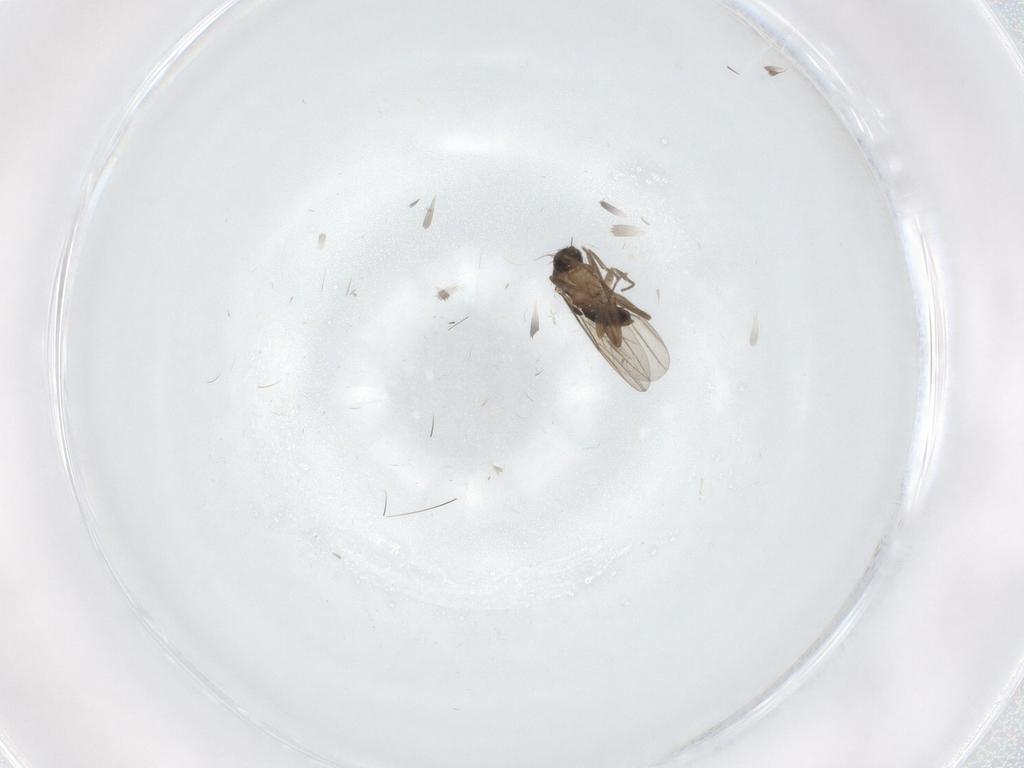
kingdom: Animalia
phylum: Arthropoda
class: Insecta
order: Diptera
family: Phoridae
